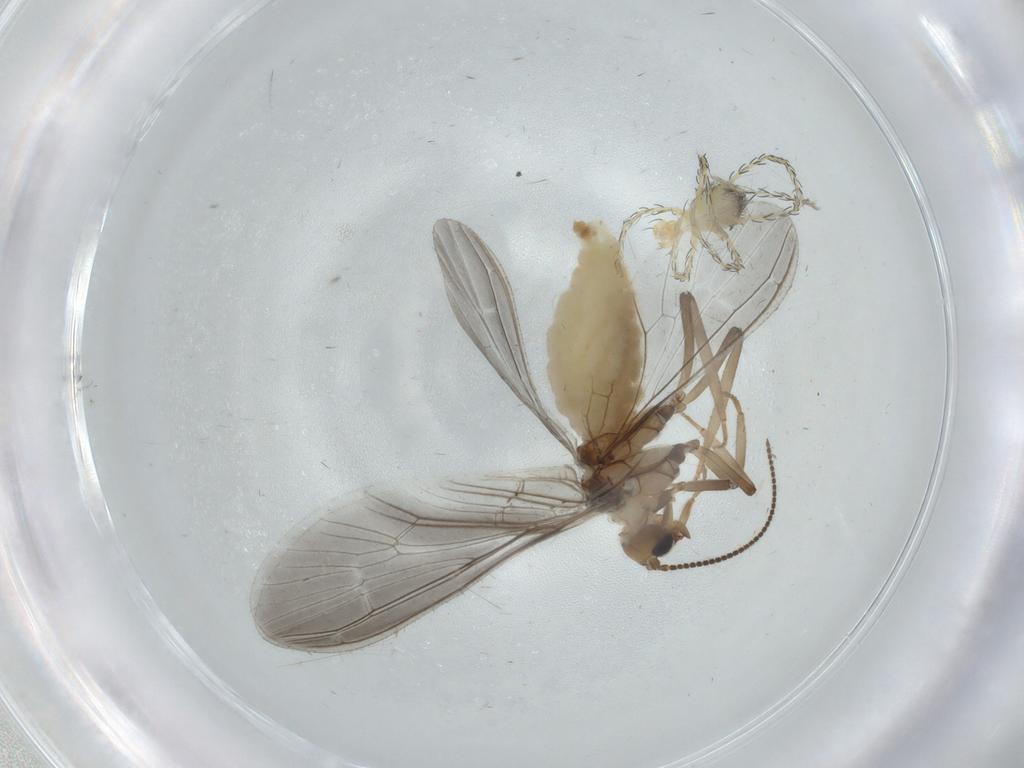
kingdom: Animalia
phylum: Arthropoda
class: Insecta
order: Neuroptera
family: Coniopterygidae
